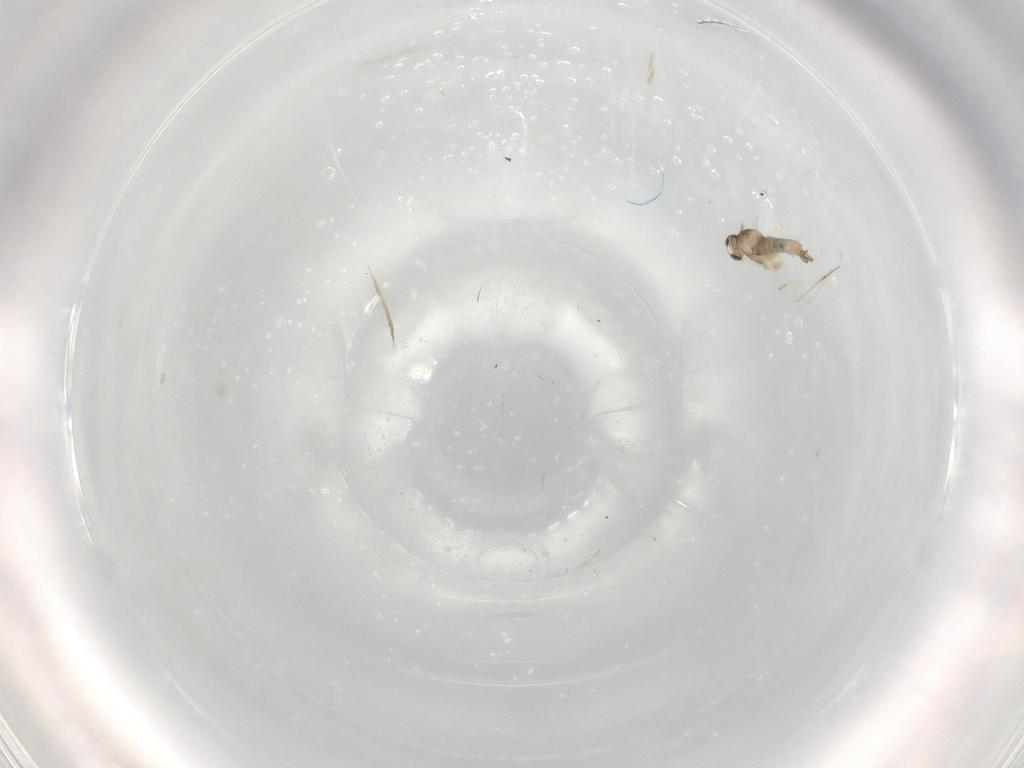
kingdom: Animalia
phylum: Arthropoda
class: Insecta
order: Diptera
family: Cecidomyiidae
